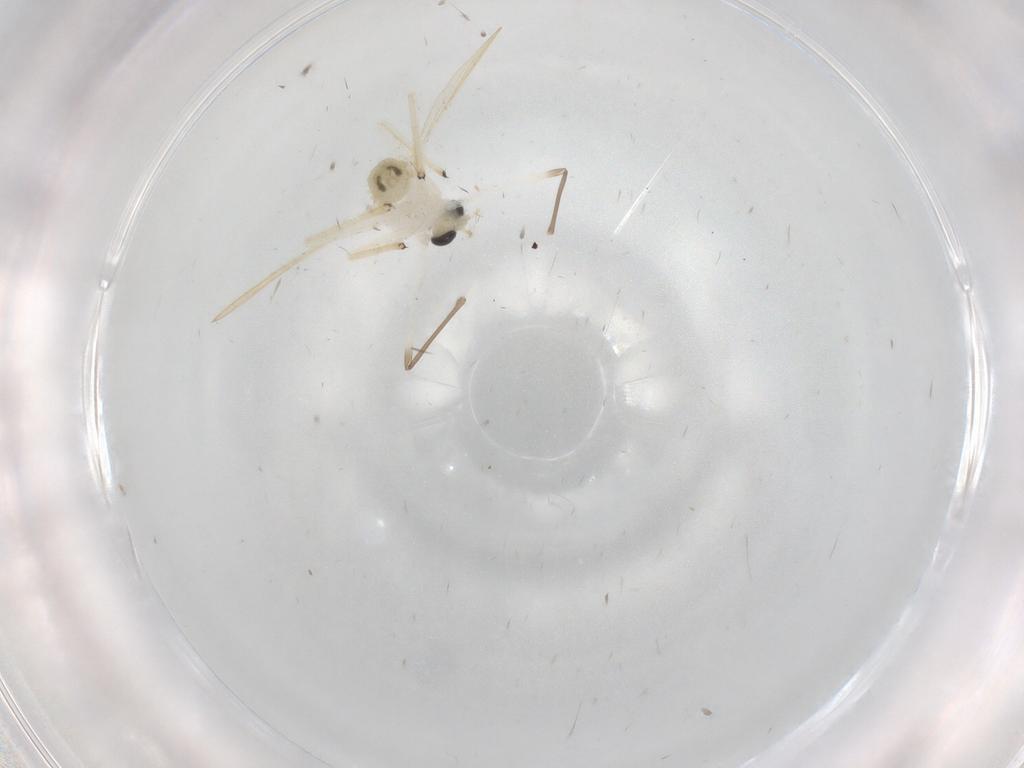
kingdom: Animalia
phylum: Arthropoda
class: Insecta
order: Diptera
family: Chironomidae
